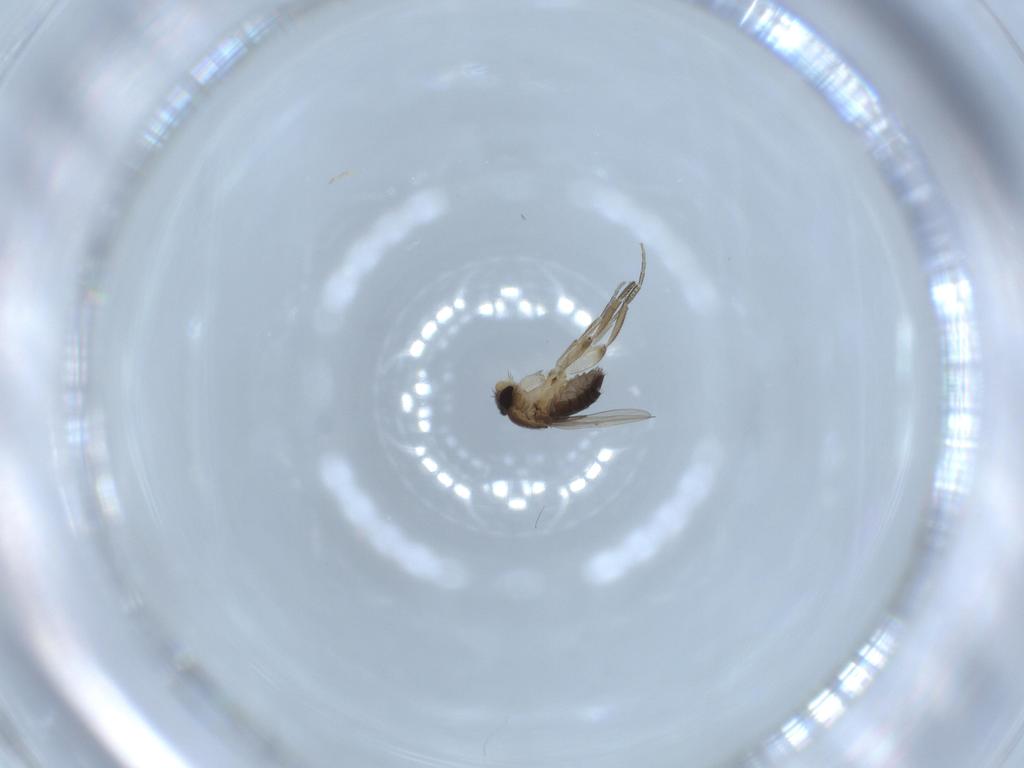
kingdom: Animalia
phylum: Arthropoda
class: Insecta
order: Diptera
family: Phoridae
